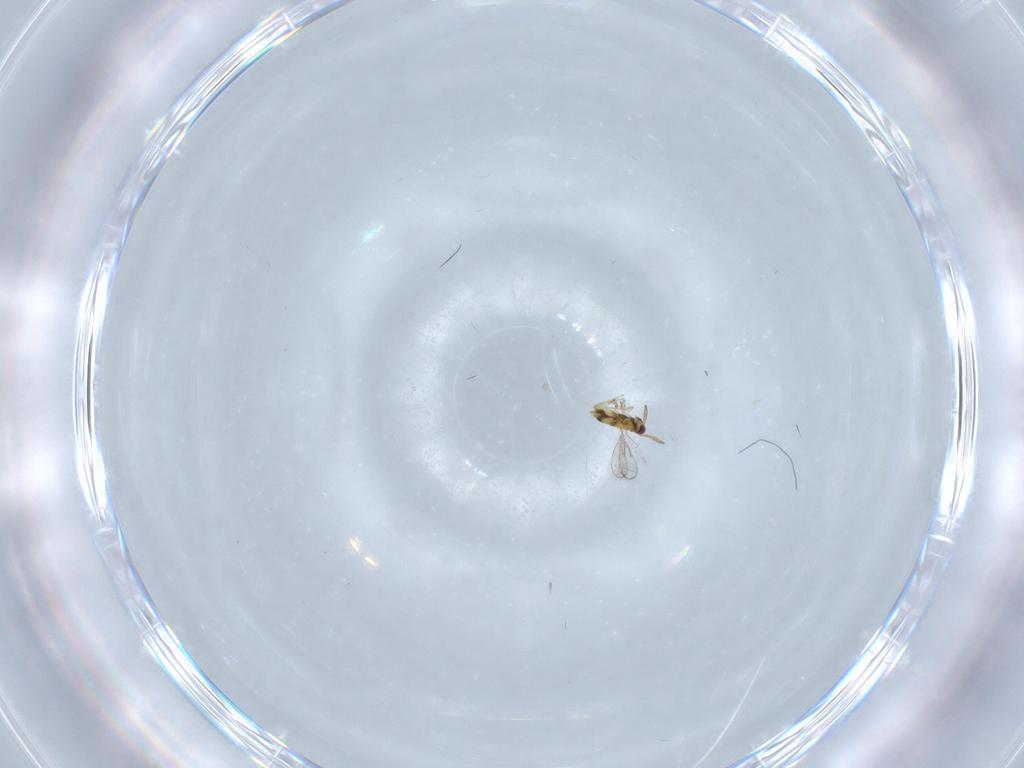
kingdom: Animalia
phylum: Arthropoda
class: Insecta
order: Hymenoptera
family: Aphelinidae
